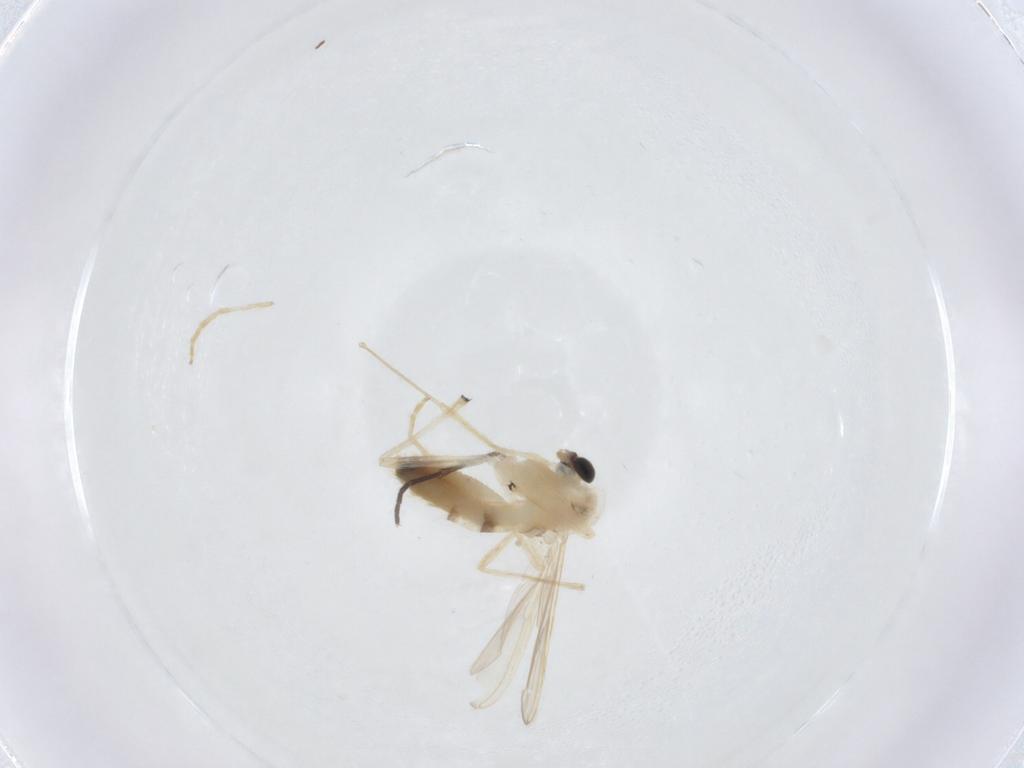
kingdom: Animalia
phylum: Arthropoda
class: Insecta
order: Diptera
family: Chironomidae
